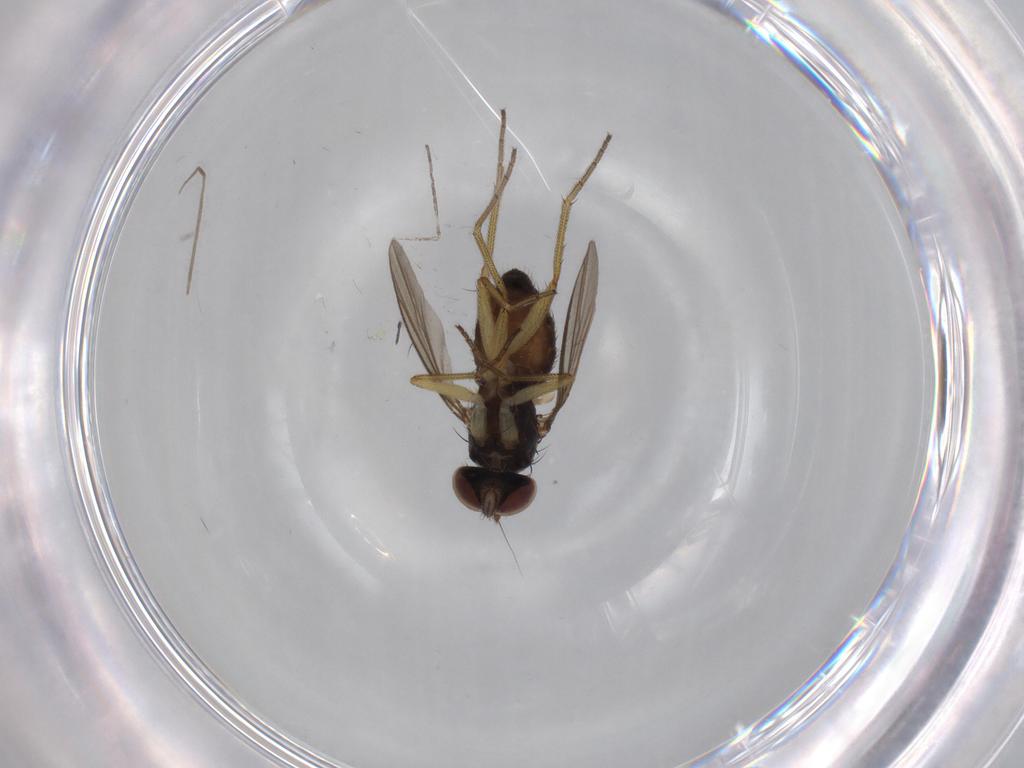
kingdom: Animalia
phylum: Arthropoda
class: Insecta
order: Diptera
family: Dolichopodidae
